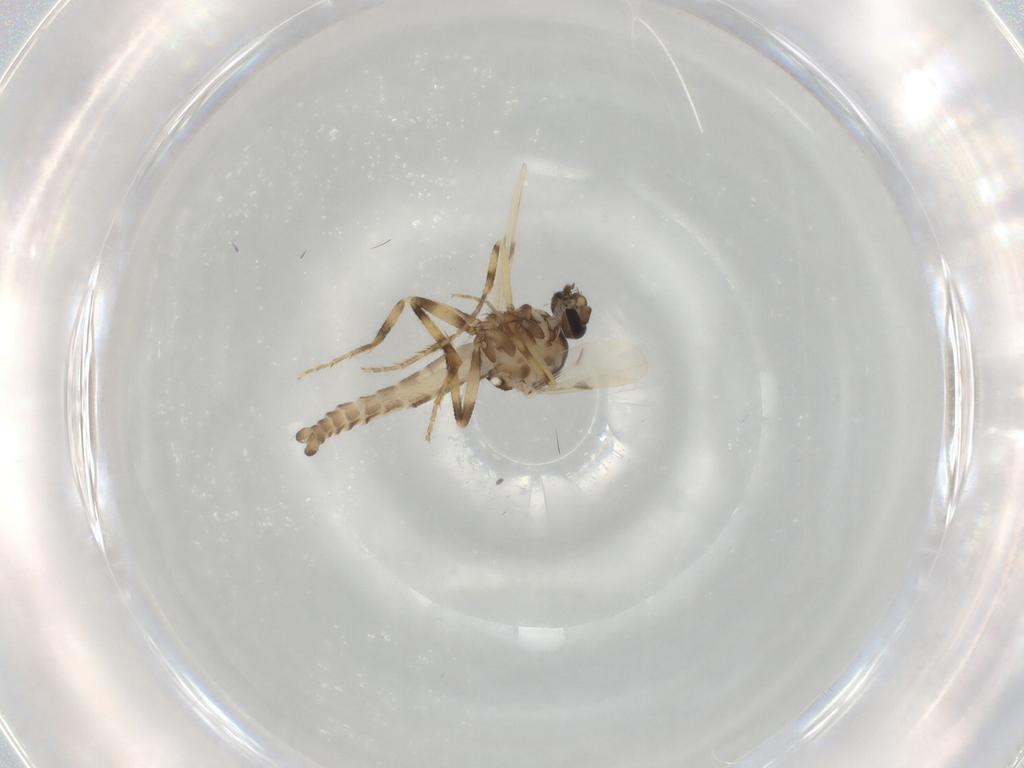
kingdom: Animalia
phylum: Arthropoda
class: Insecta
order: Diptera
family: Ceratopogonidae
